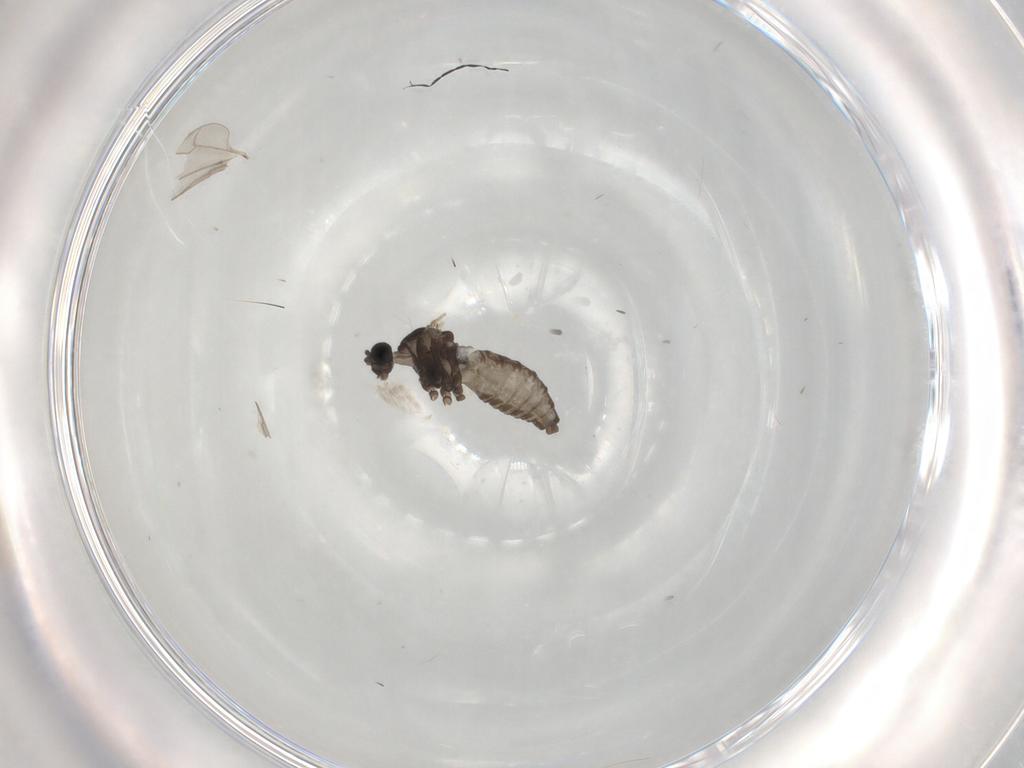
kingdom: Animalia
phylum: Arthropoda
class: Insecta
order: Diptera
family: Cecidomyiidae
